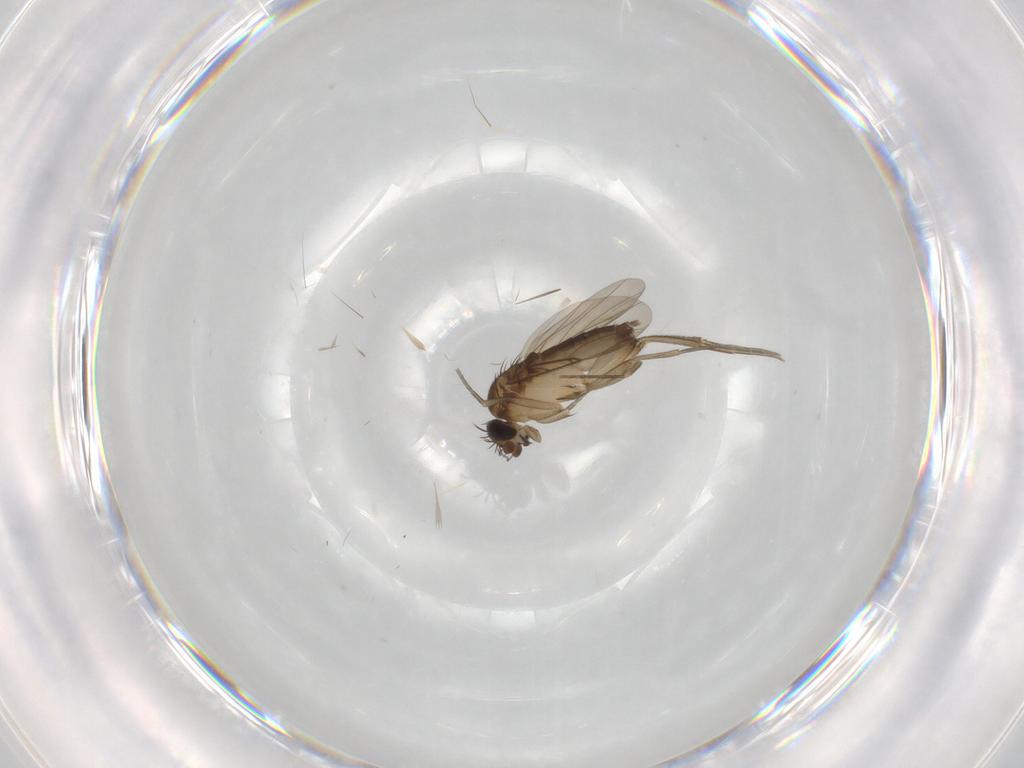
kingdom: Animalia
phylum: Arthropoda
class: Insecta
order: Diptera
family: Phoridae
